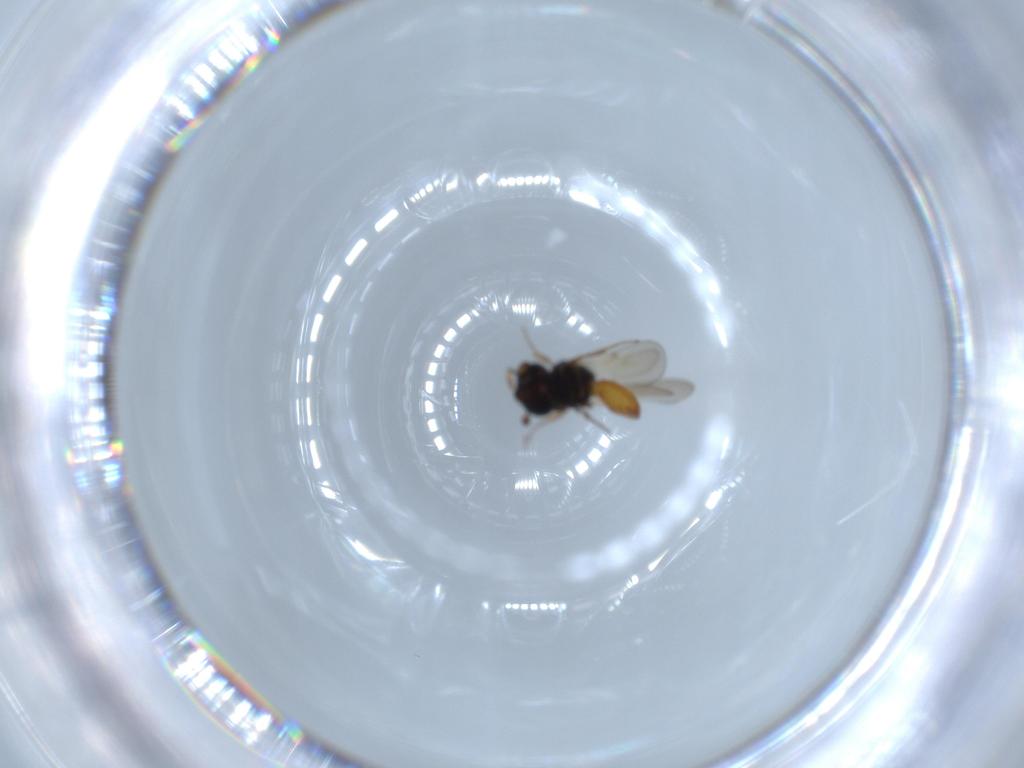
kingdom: Animalia
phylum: Arthropoda
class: Insecta
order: Hymenoptera
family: Scelionidae
